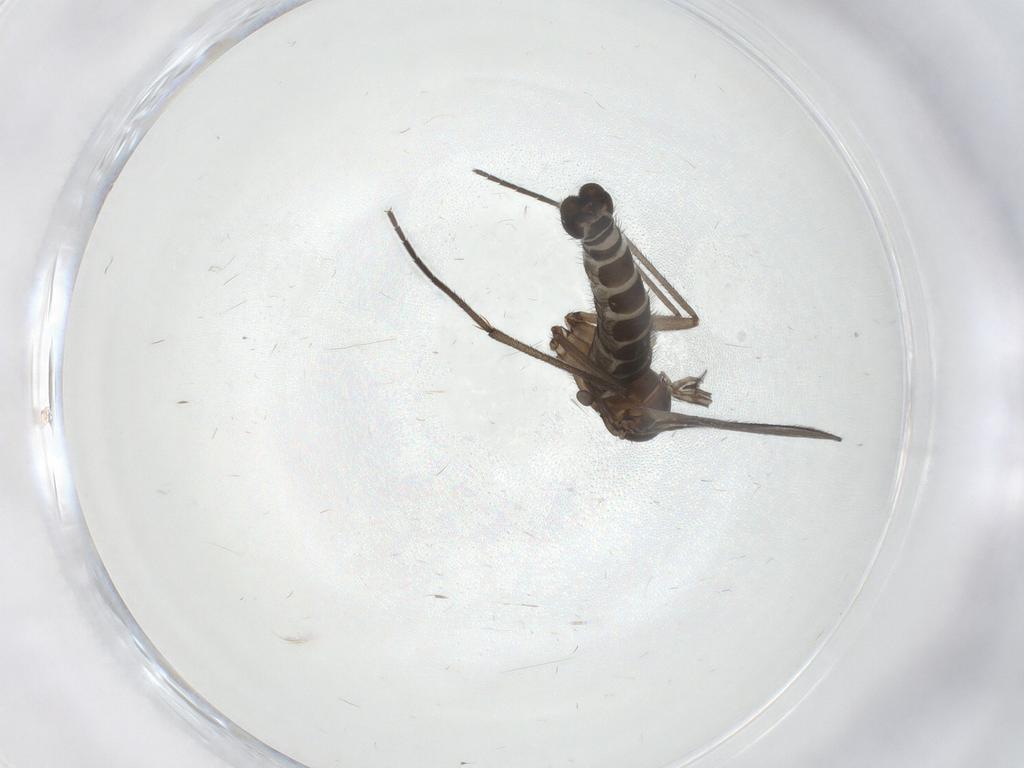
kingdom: Animalia
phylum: Arthropoda
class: Insecta
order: Diptera
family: Sciaridae
